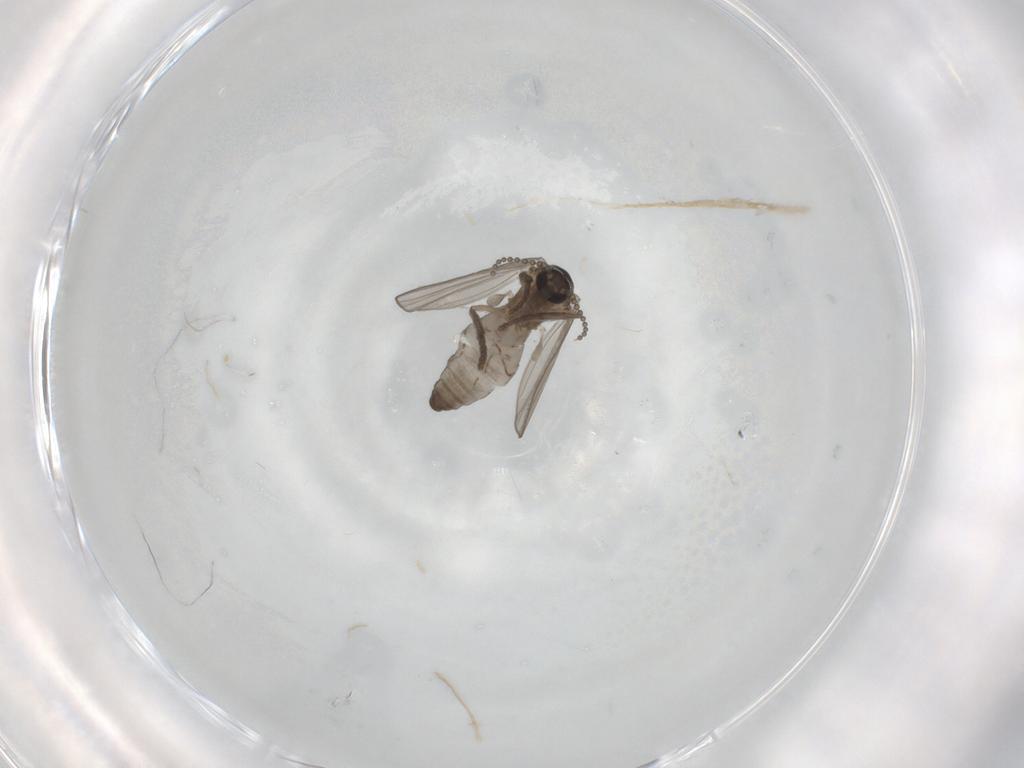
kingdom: Animalia
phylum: Arthropoda
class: Insecta
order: Diptera
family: Psychodidae
